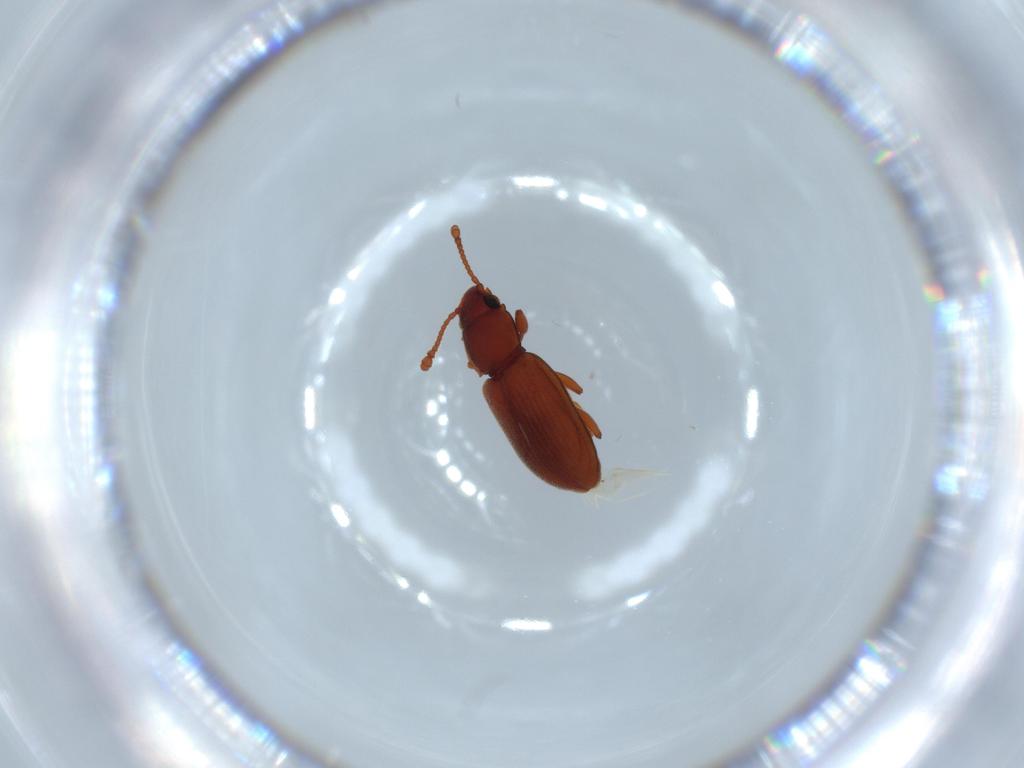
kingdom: Animalia
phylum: Arthropoda
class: Insecta
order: Coleoptera
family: Silvanidae
